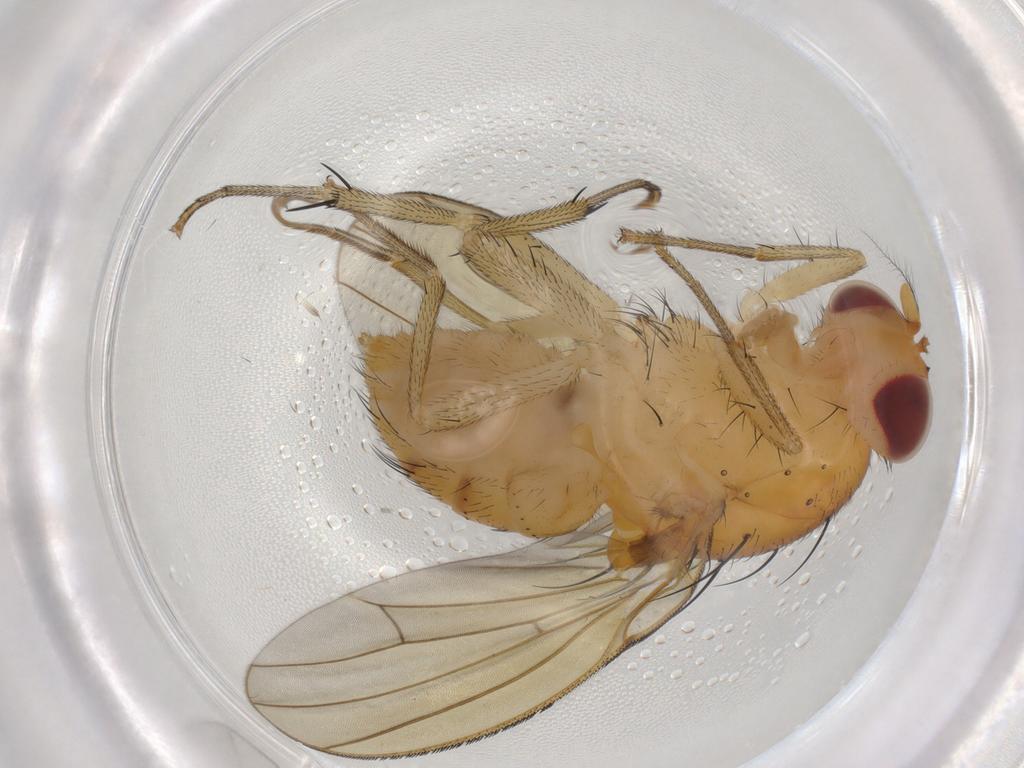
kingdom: Animalia
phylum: Arthropoda
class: Insecta
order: Diptera
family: Sciaridae
